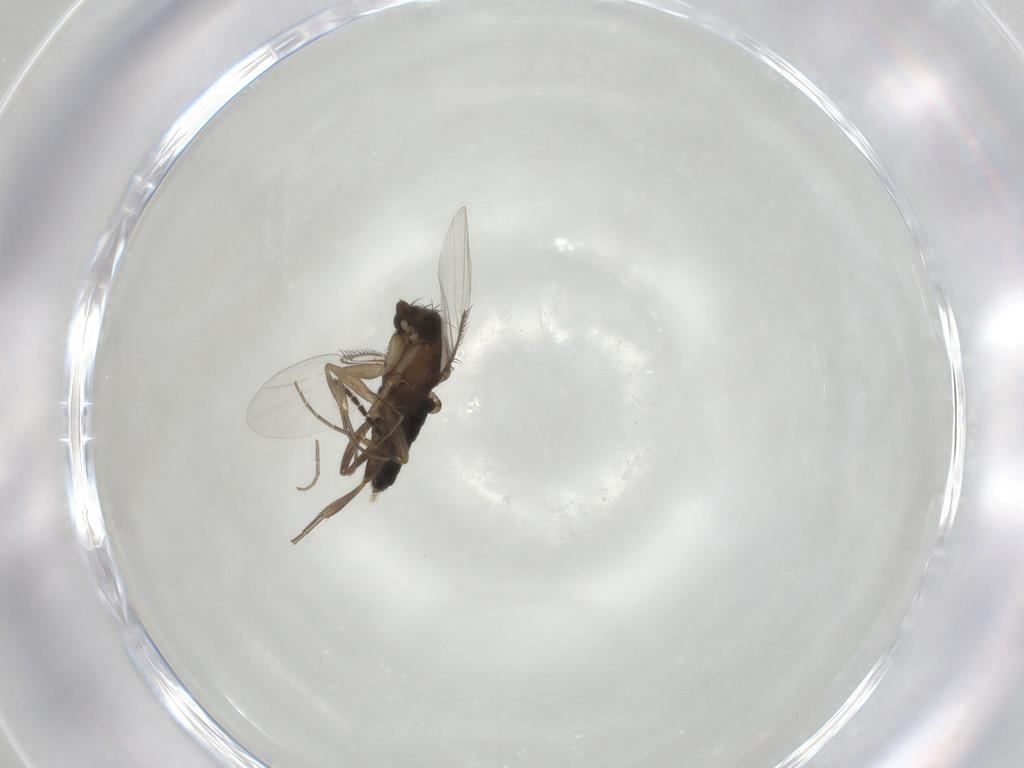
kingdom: Animalia
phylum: Arthropoda
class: Insecta
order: Diptera
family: Phoridae
